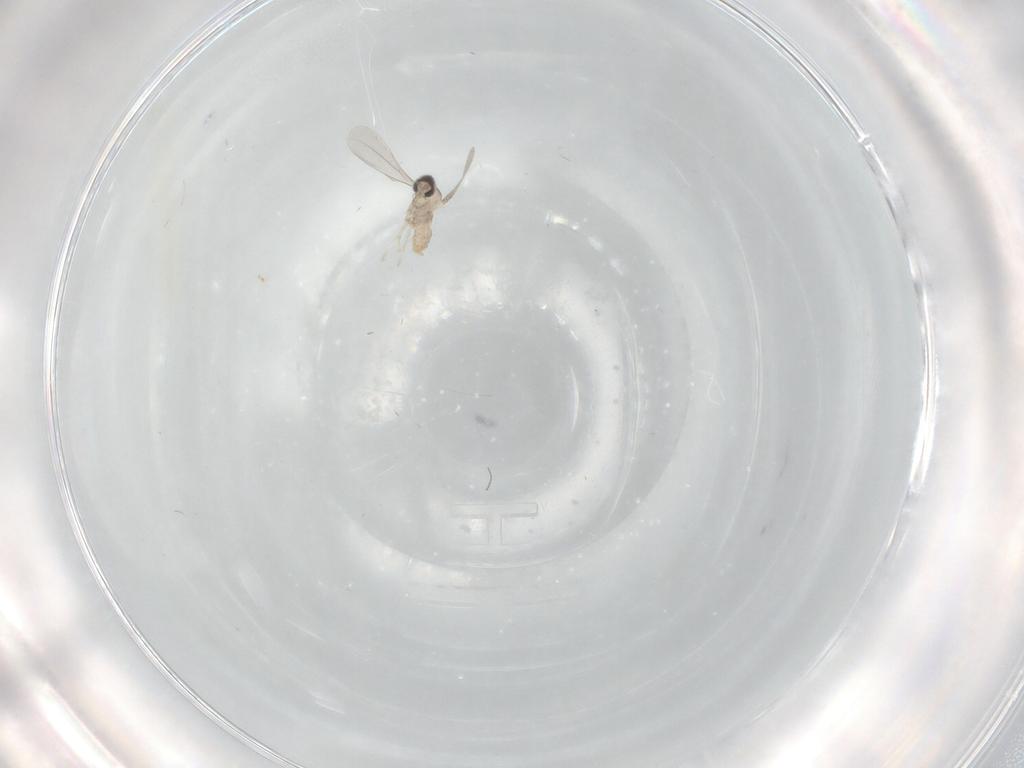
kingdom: Animalia
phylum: Arthropoda
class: Insecta
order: Diptera
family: Cecidomyiidae
